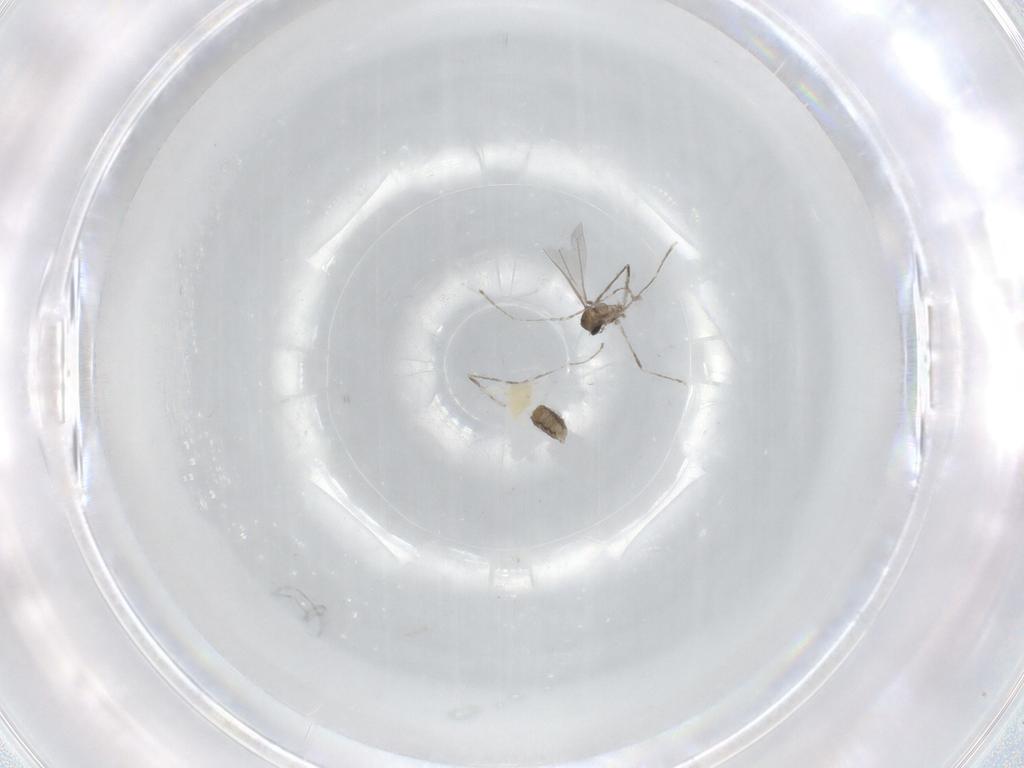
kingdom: Animalia
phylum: Arthropoda
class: Insecta
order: Diptera
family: Cecidomyiidae
